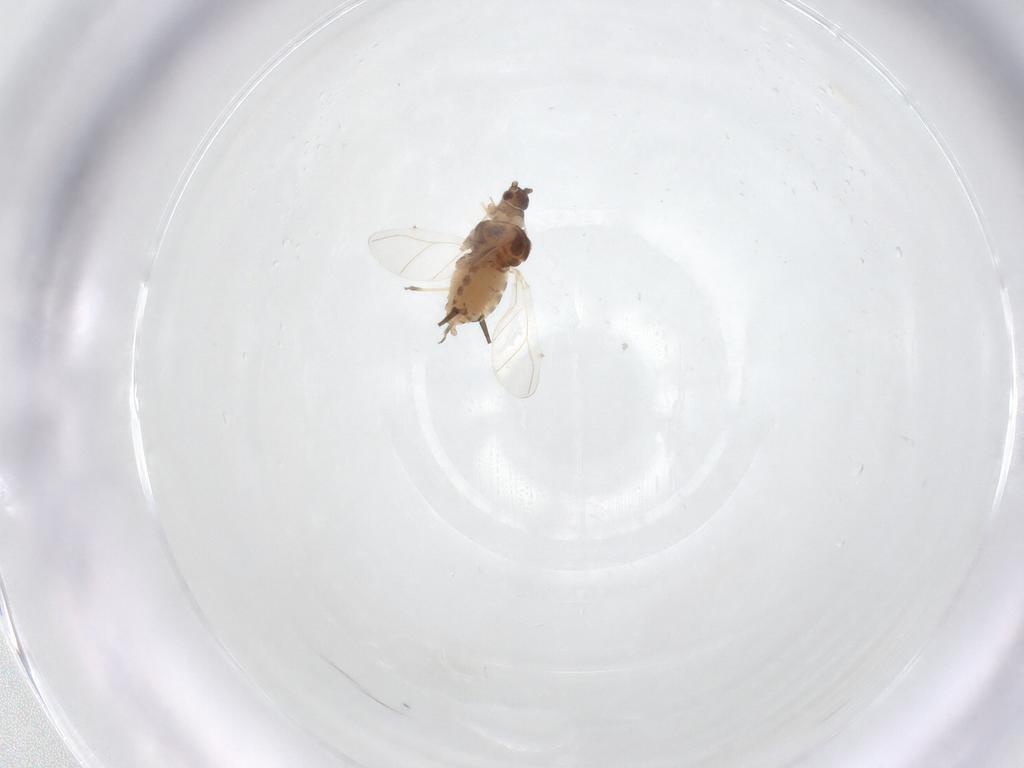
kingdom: Animalia
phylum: Arthropoda
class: Insecta
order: Hemiptera
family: Aphididae
